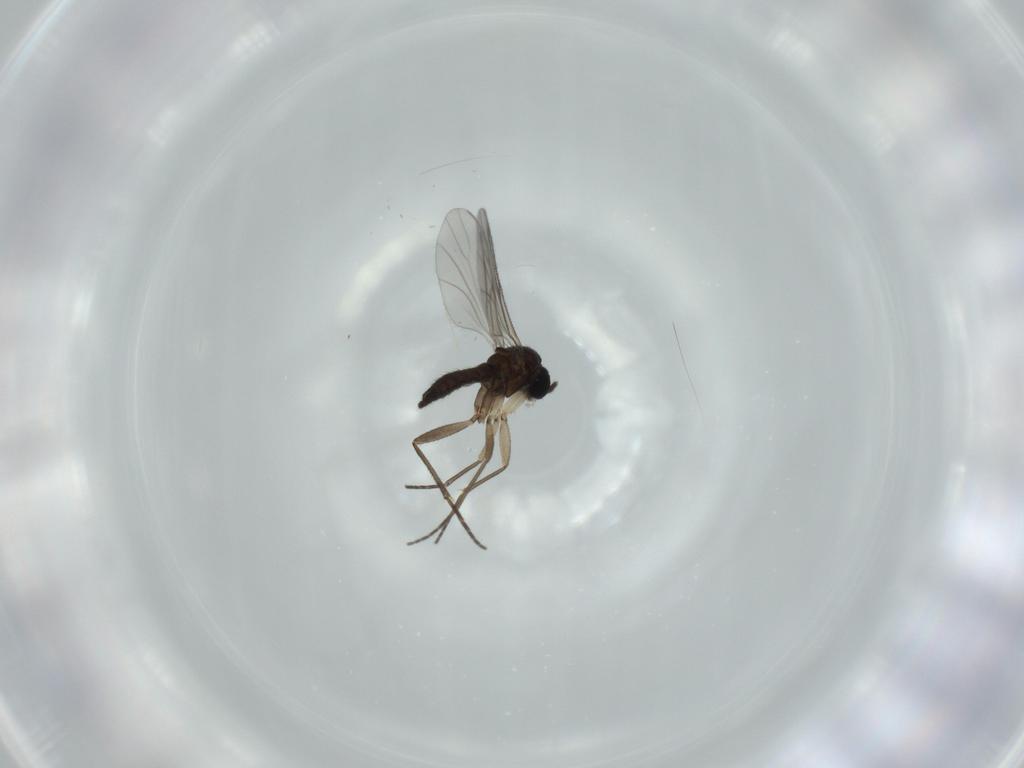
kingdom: Animalia
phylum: Arthropoda
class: Insecta
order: Diptera
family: Sciaridae
